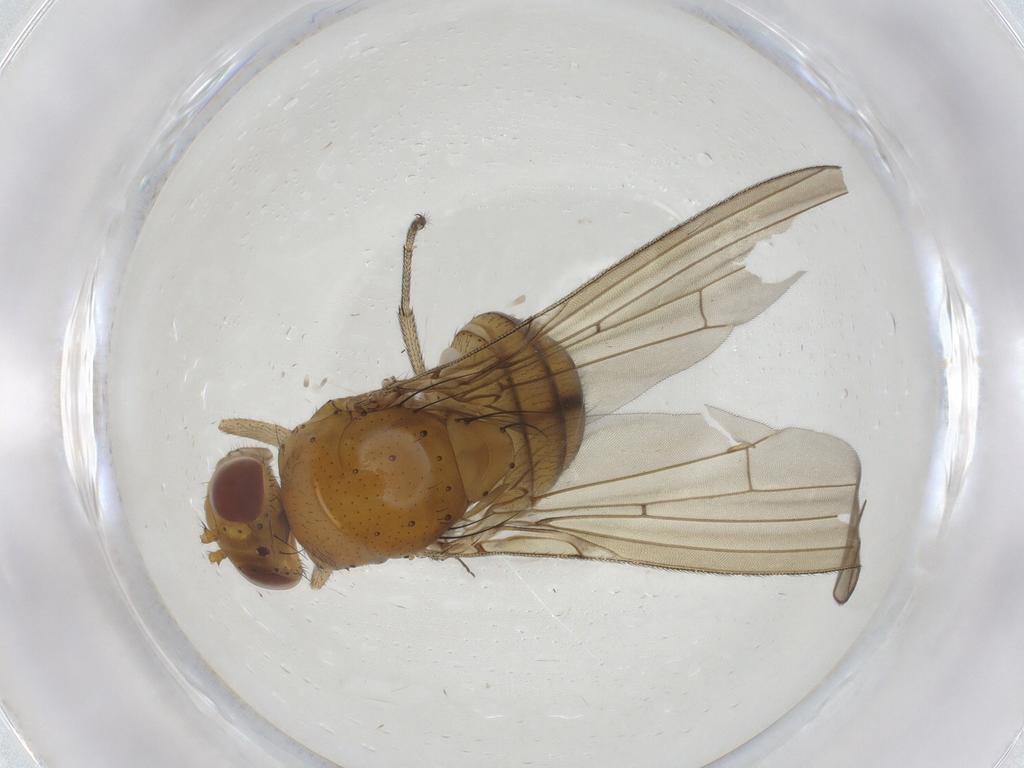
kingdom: Animalia
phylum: Arthropoda
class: Insecta
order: Diptera
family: Ceratopogonidae
